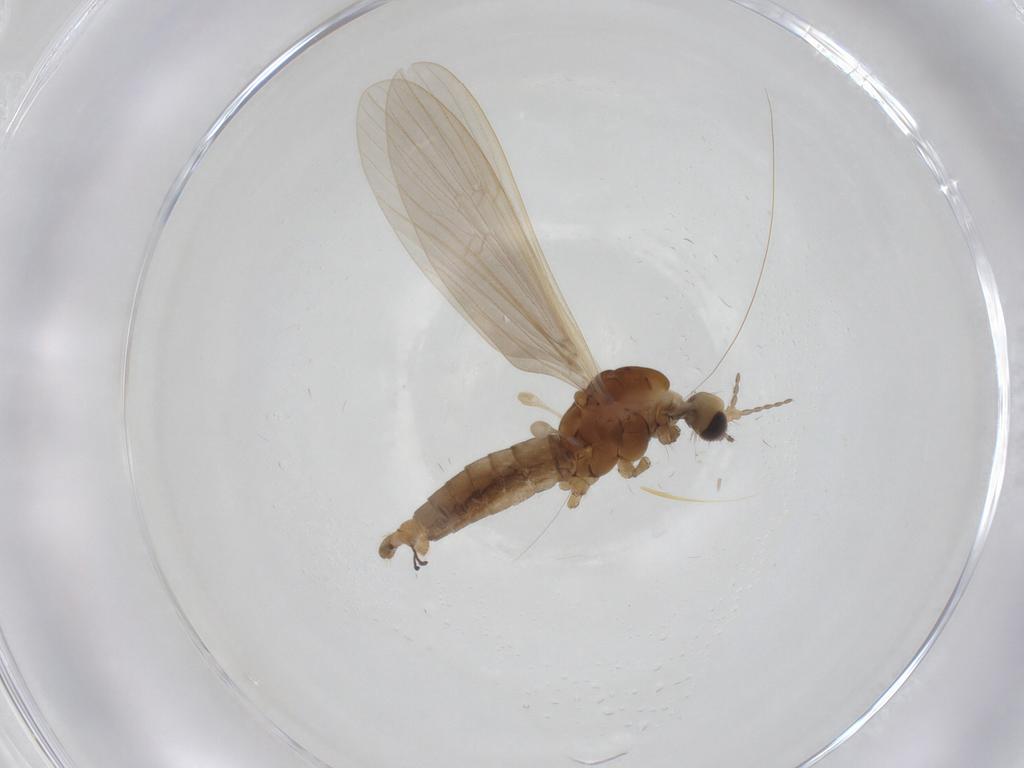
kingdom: Animalia
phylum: Arthropoda
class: Insecta
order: Diptera
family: Limoniidae
